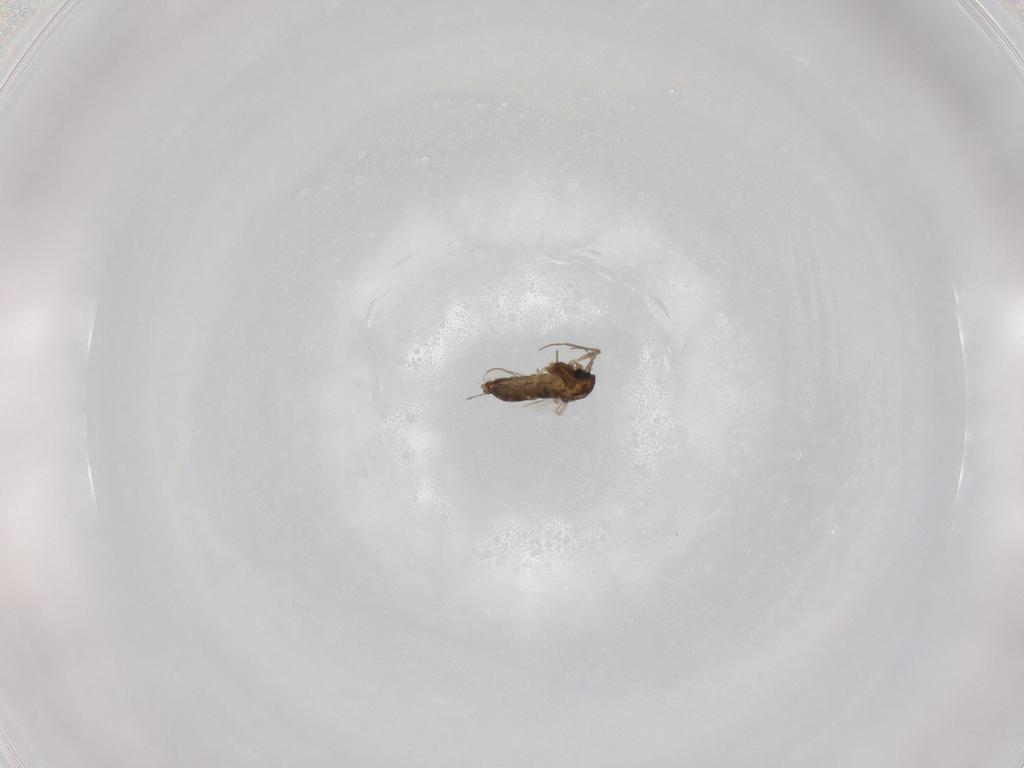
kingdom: Animalia
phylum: Arthropoda
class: Insecta
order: Diptera
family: Chironomidae
